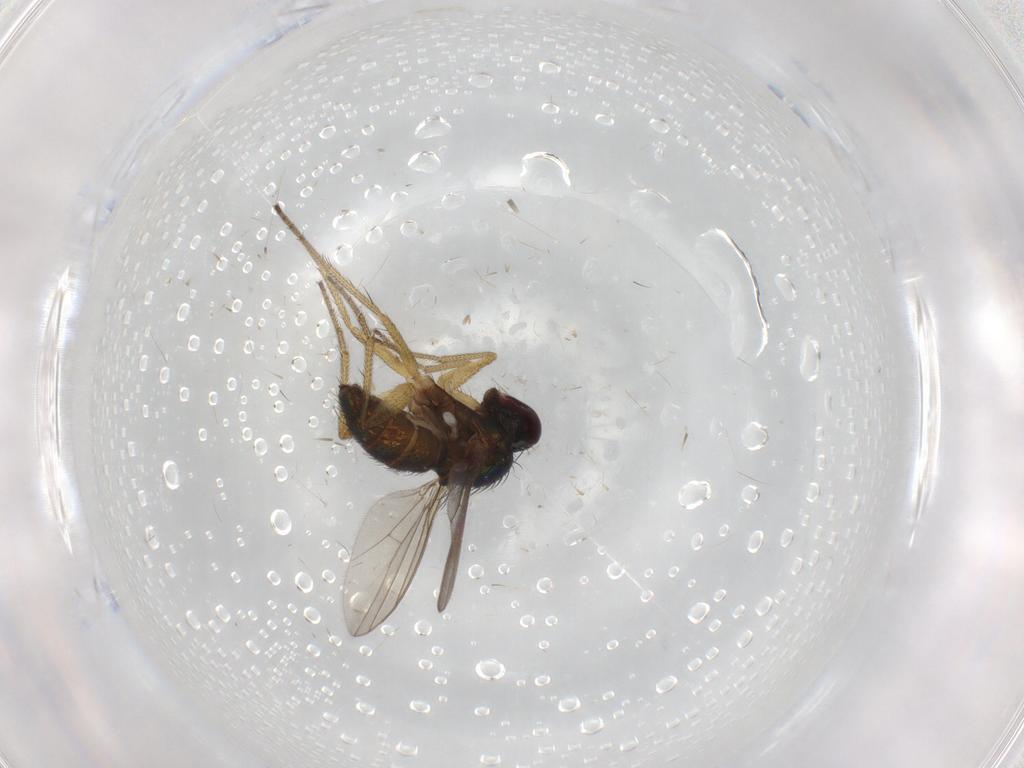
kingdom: Animalia
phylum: Arthropoda
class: Insecta
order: Diptera
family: Dolichopodidae
